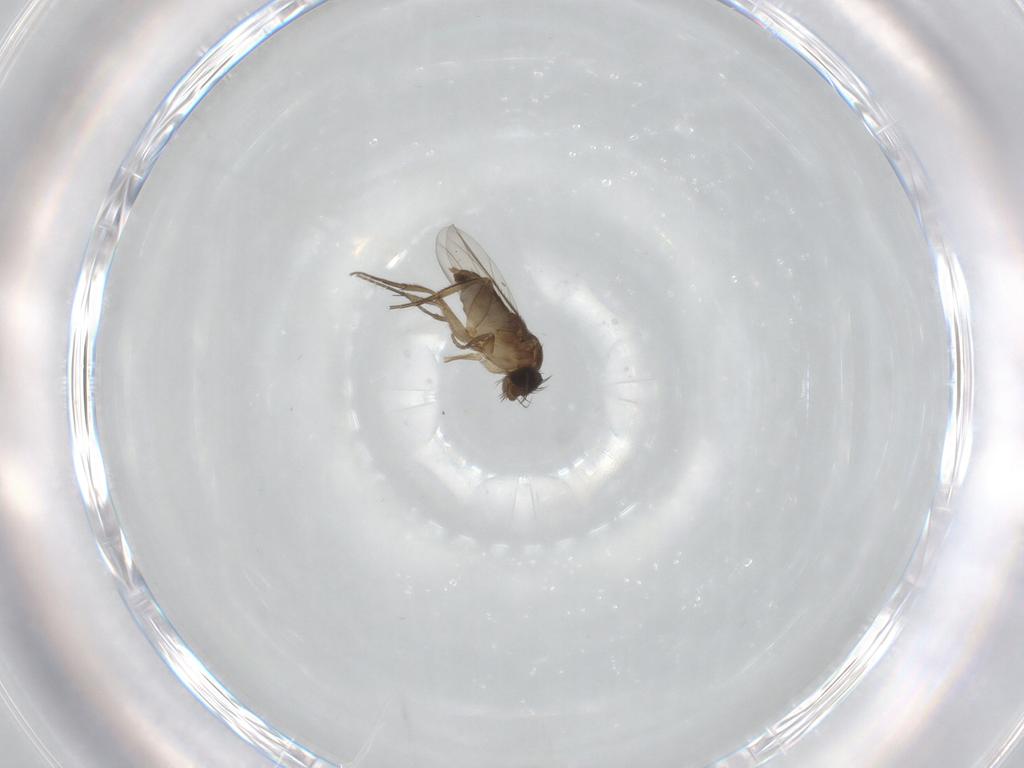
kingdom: Animalia
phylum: Arthropoda
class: Insecta
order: Diptera
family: Phoridae
